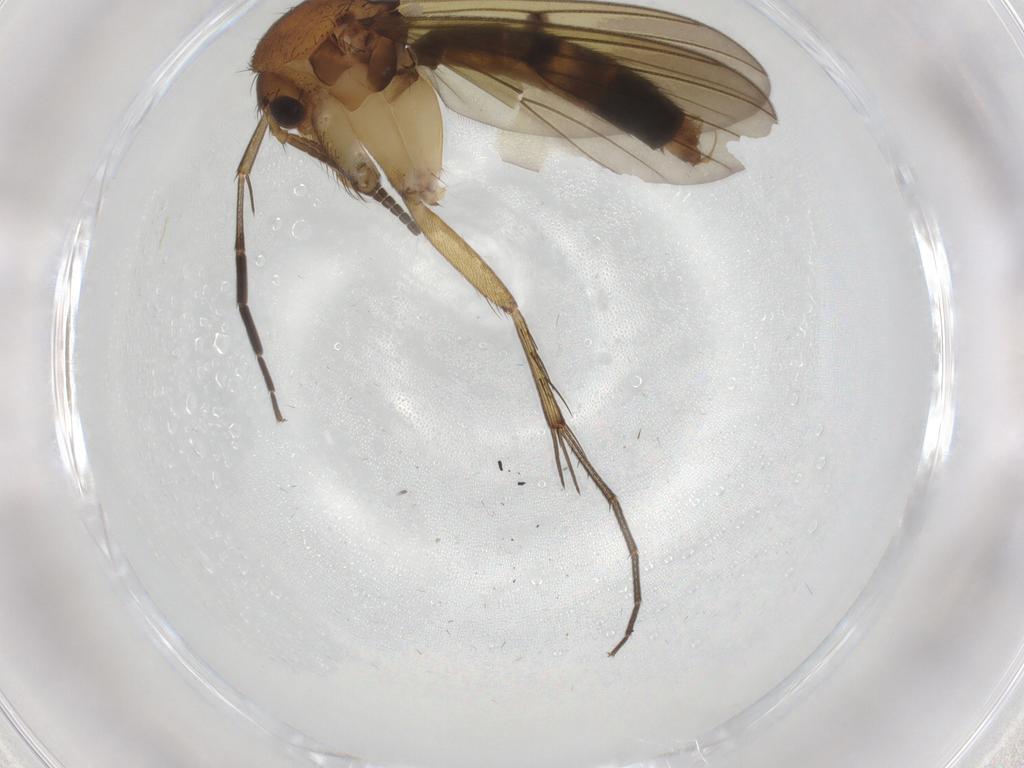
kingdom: Animalia
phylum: Arthropoda
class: Insecta
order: Diptera
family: Mycetophilidae
